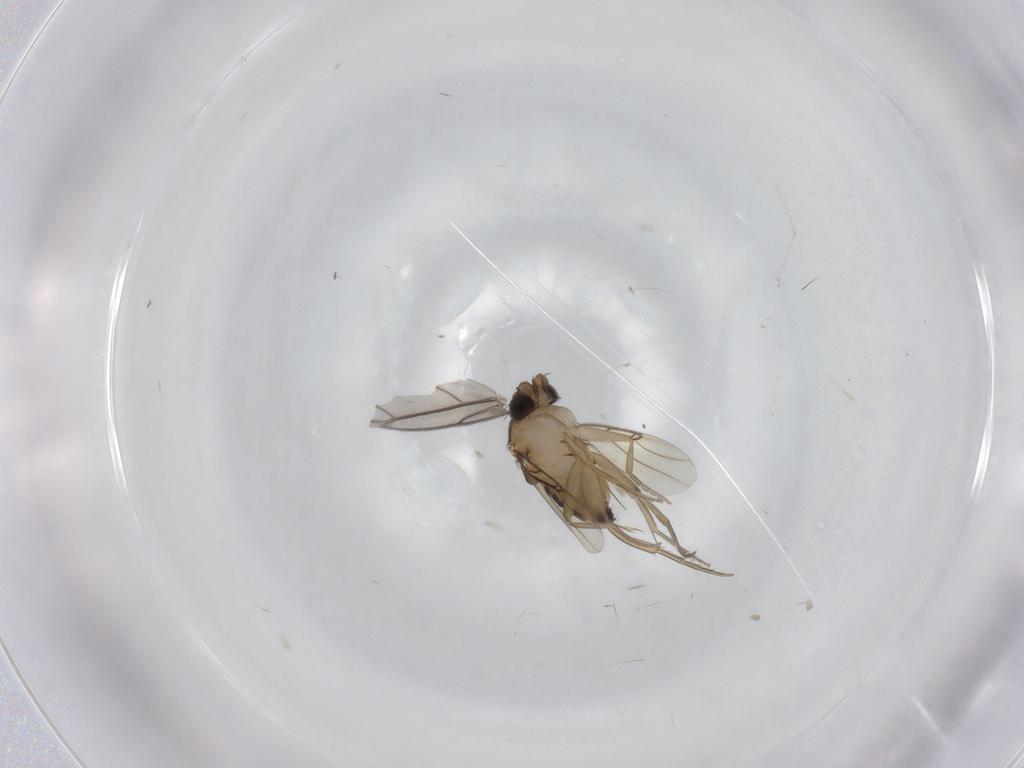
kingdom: Animalia
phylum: Arthropoda
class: Insecta
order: Diptera
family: Phoridae
